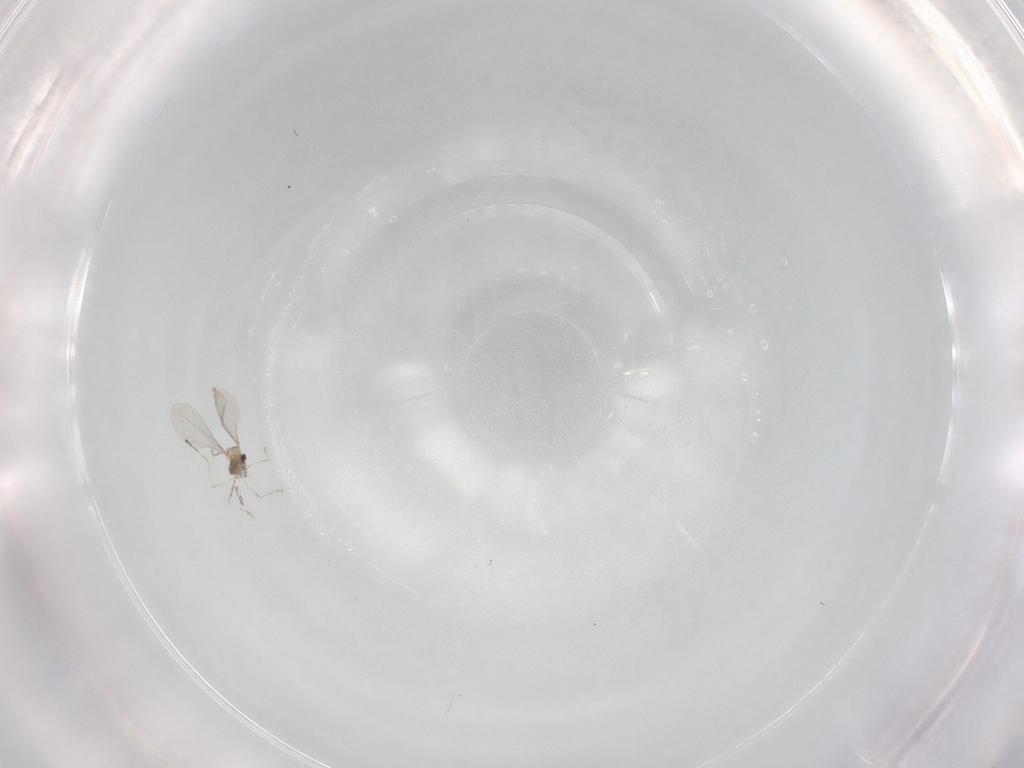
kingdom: Animalia
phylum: Arthropoda
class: Insecta
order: Diptera
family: Cecidomyiidae
